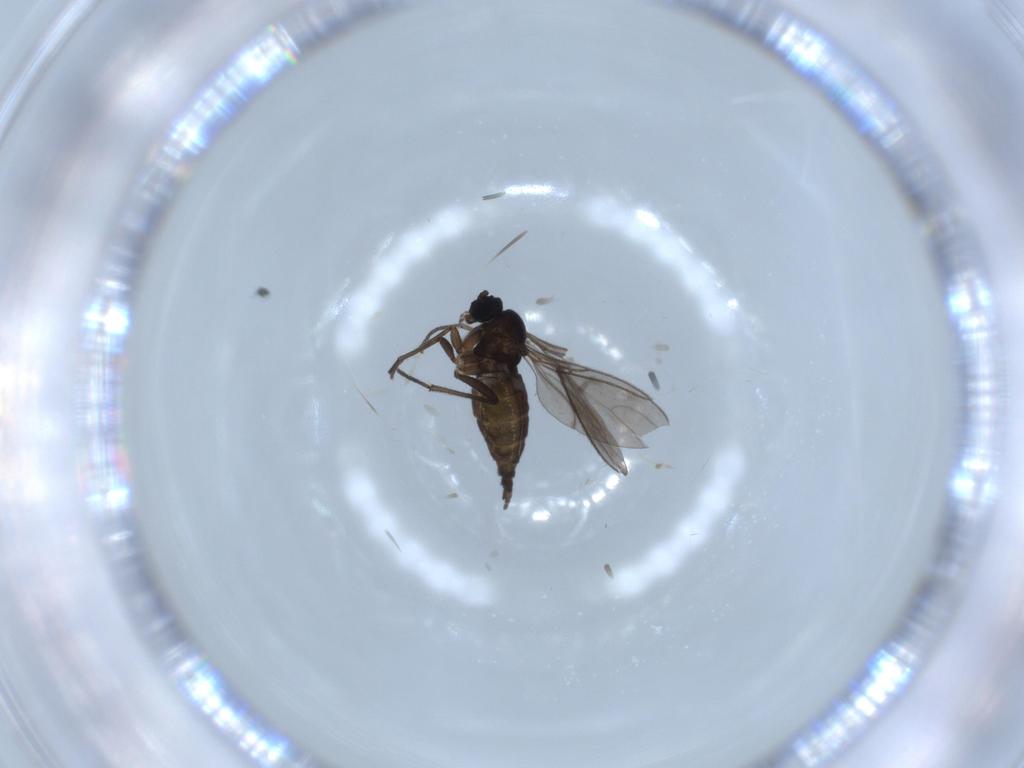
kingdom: Animalia
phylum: Arthropoda
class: Insecta
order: Diptera
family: Sciaridae
